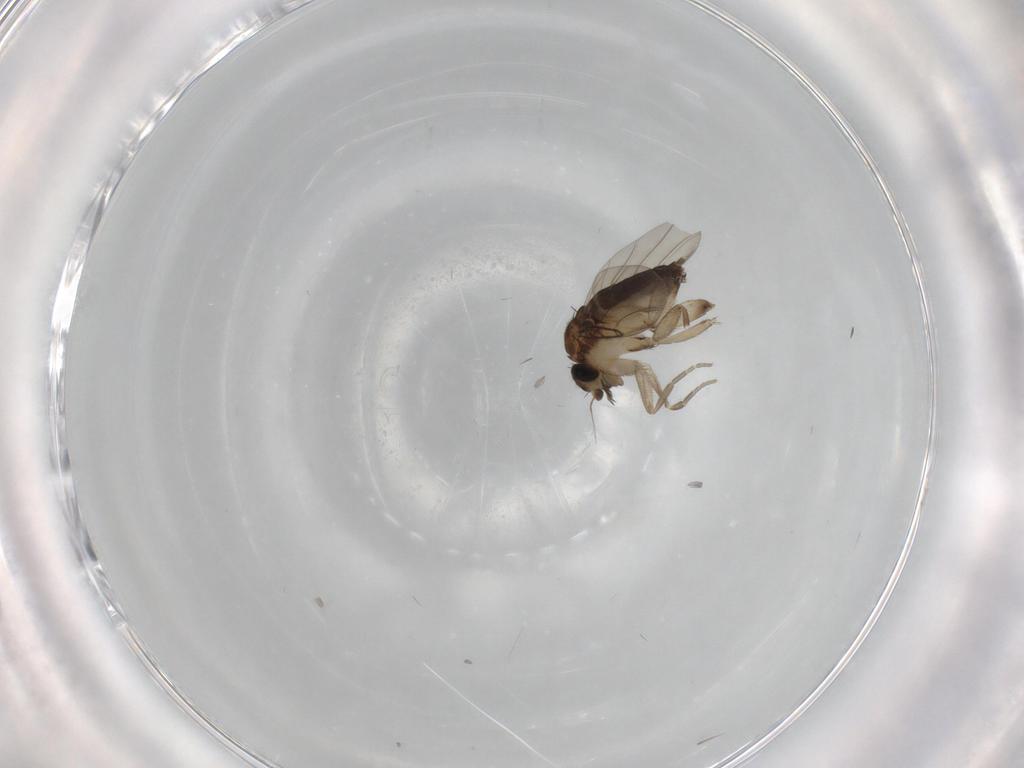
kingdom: Animalia
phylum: Arthropoda
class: Insecta
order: Diptera
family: Phoridae
